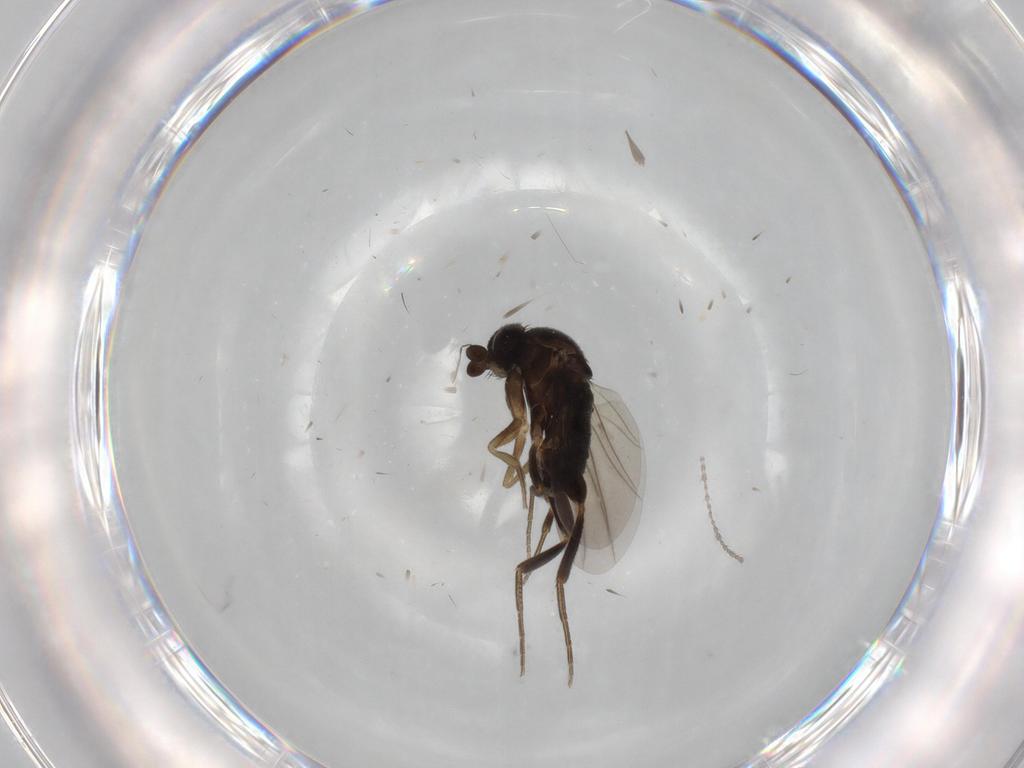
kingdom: Animalia
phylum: Arthropoda
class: Insecta
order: Diptera
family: Phoridae
